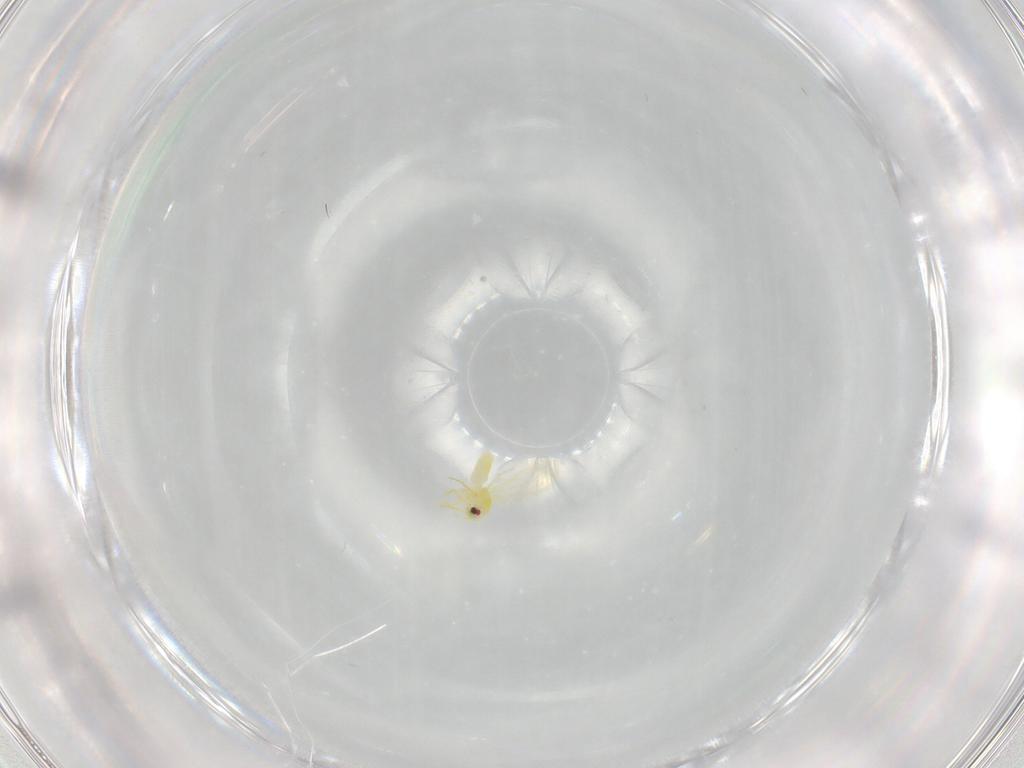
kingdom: Animalia
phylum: Arthropoda
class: Insecta
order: Hemiptera
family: Aleyrodidae
